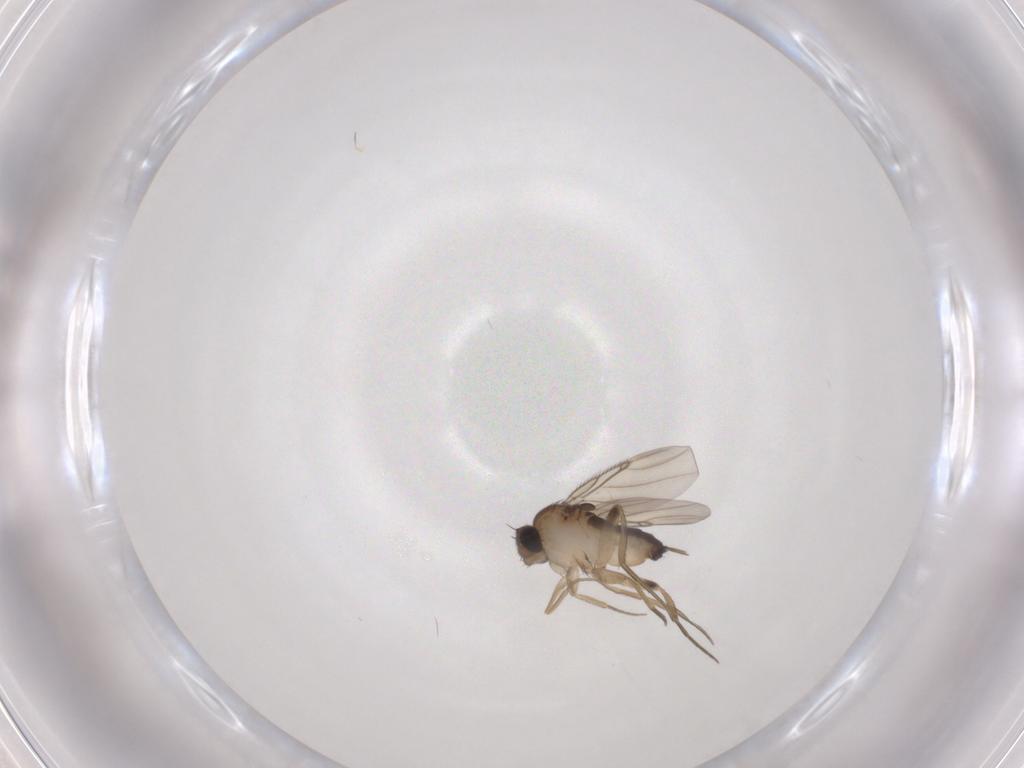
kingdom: Animalia
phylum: Arthropoda
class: Insecta
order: Diptera
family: Phoridae
